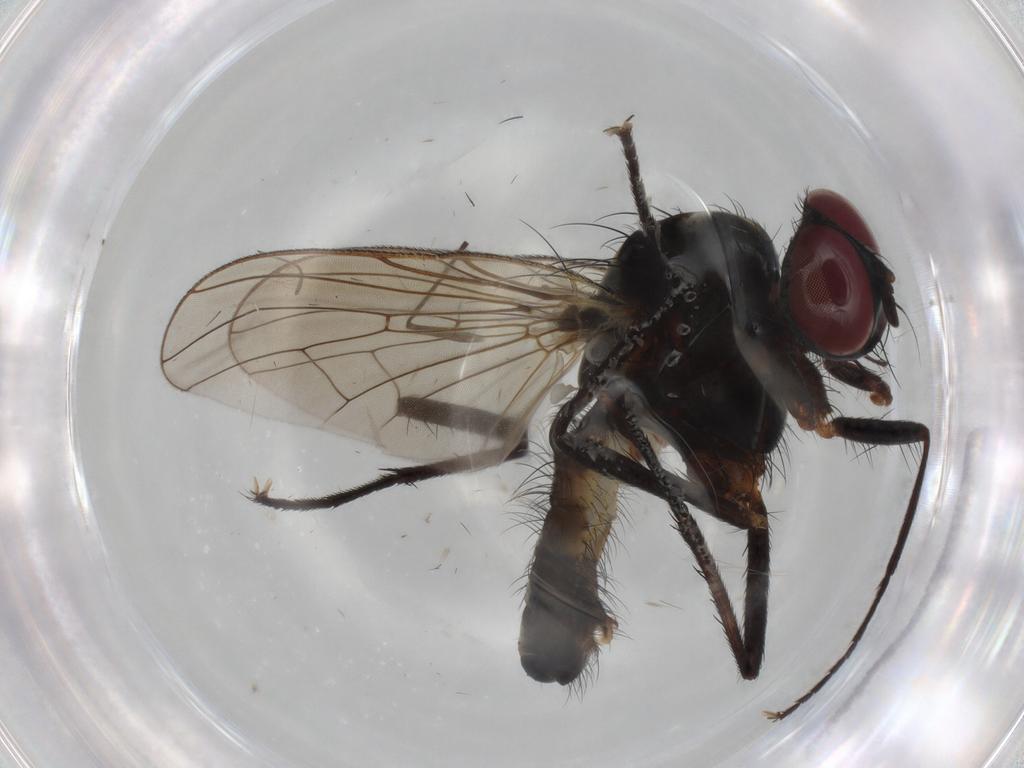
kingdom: Animalia
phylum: Arthropoda
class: Insecta
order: Diptera
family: Anthomyiidae
